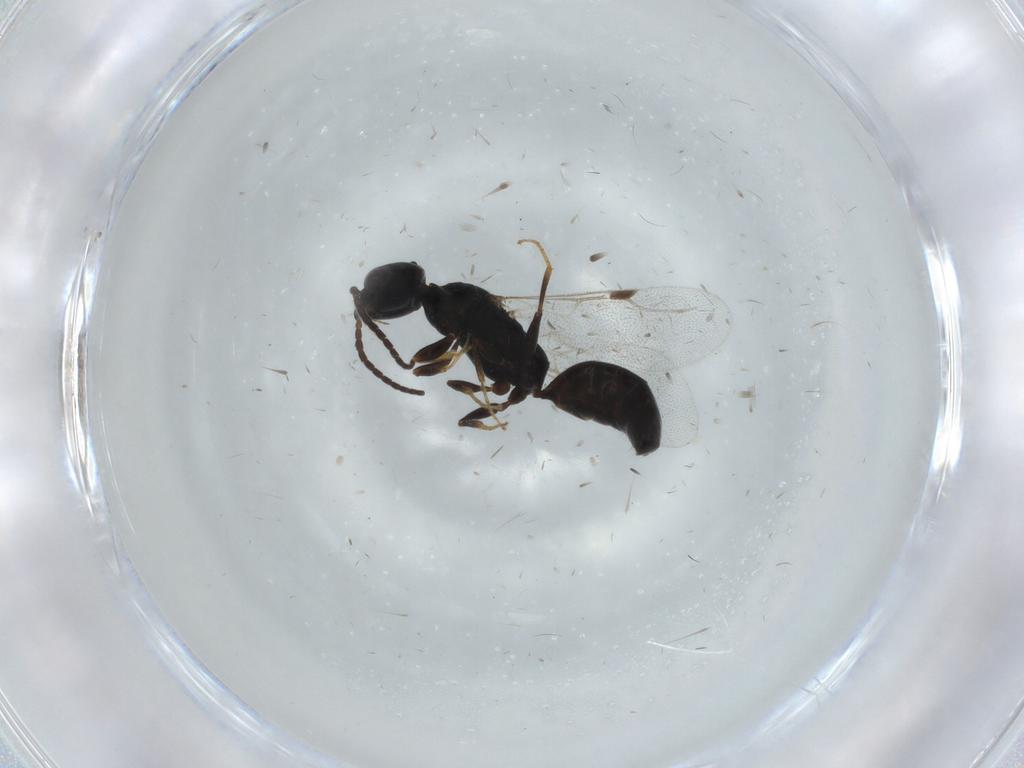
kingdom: Animalia
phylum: Arthropoda
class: Insecta
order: Hymenoptera
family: Bethylidae
